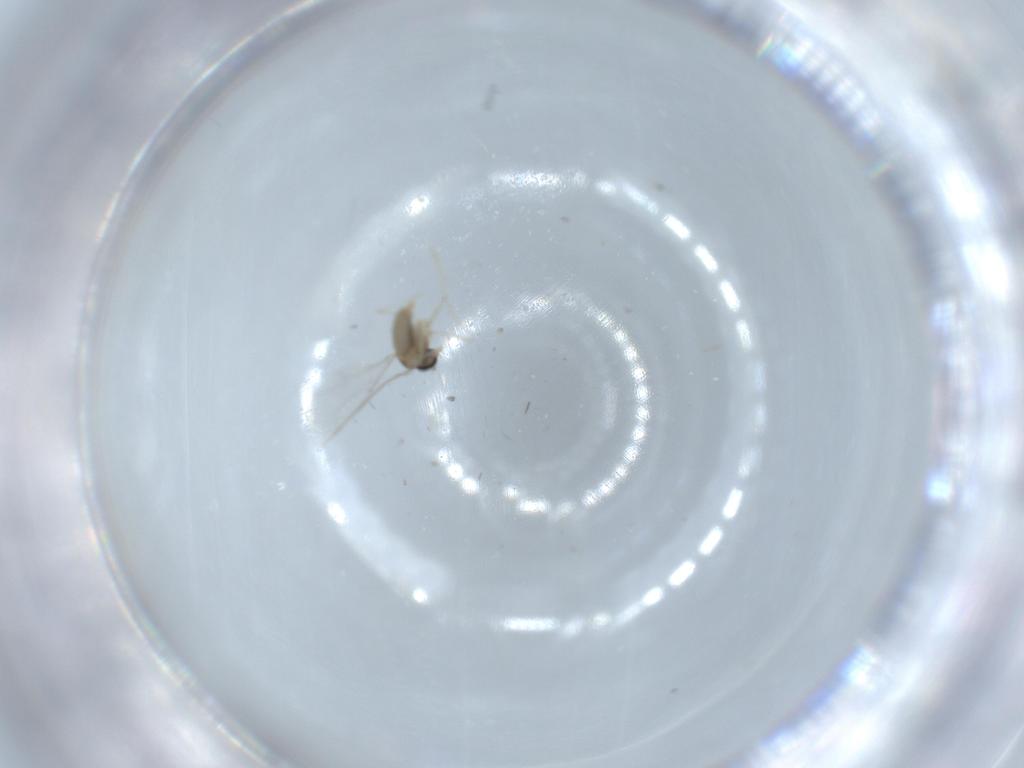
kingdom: Animalia
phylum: Arthropoda
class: Insecta
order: Diptera
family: Cecidomyiidae
